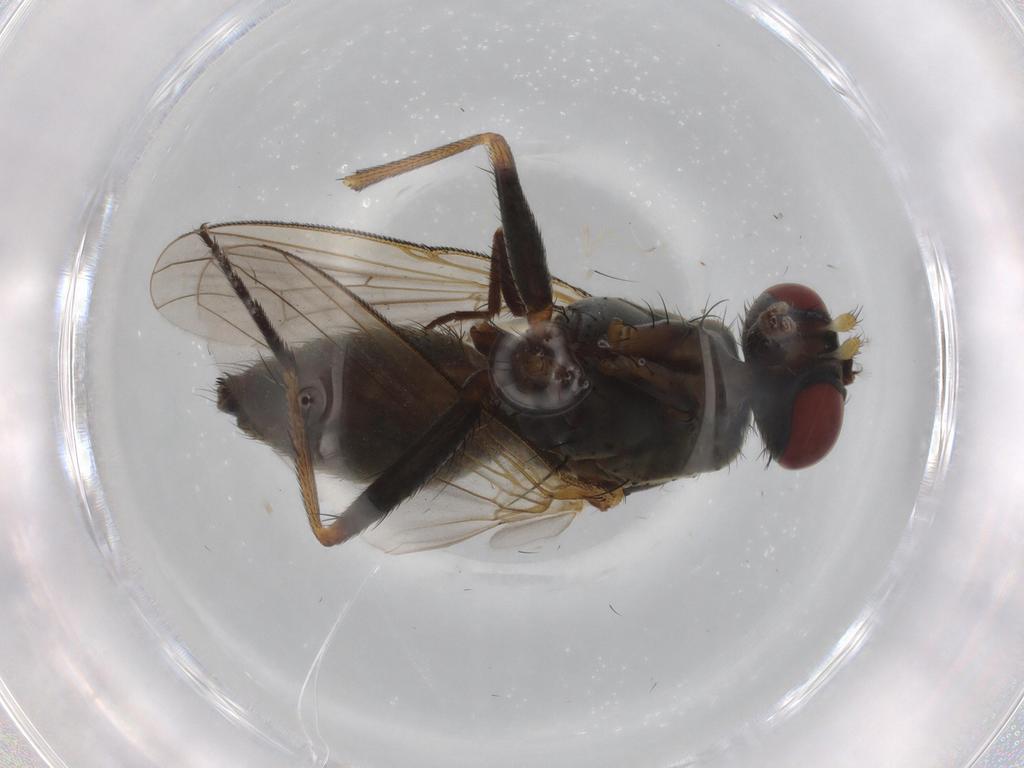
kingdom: Animalia
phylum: Arthropoda
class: Insecta
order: Diptera
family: Muscidae
